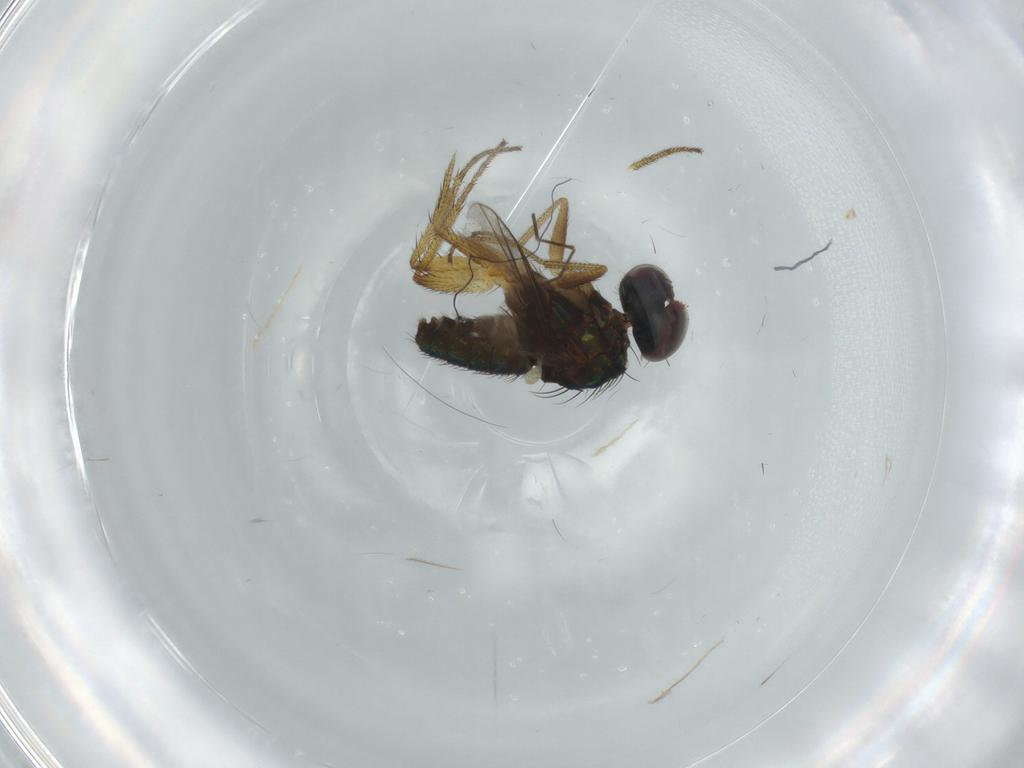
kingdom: Animalia
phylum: Arthropoda
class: Insecta
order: Diptera
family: Dolichopodidae
